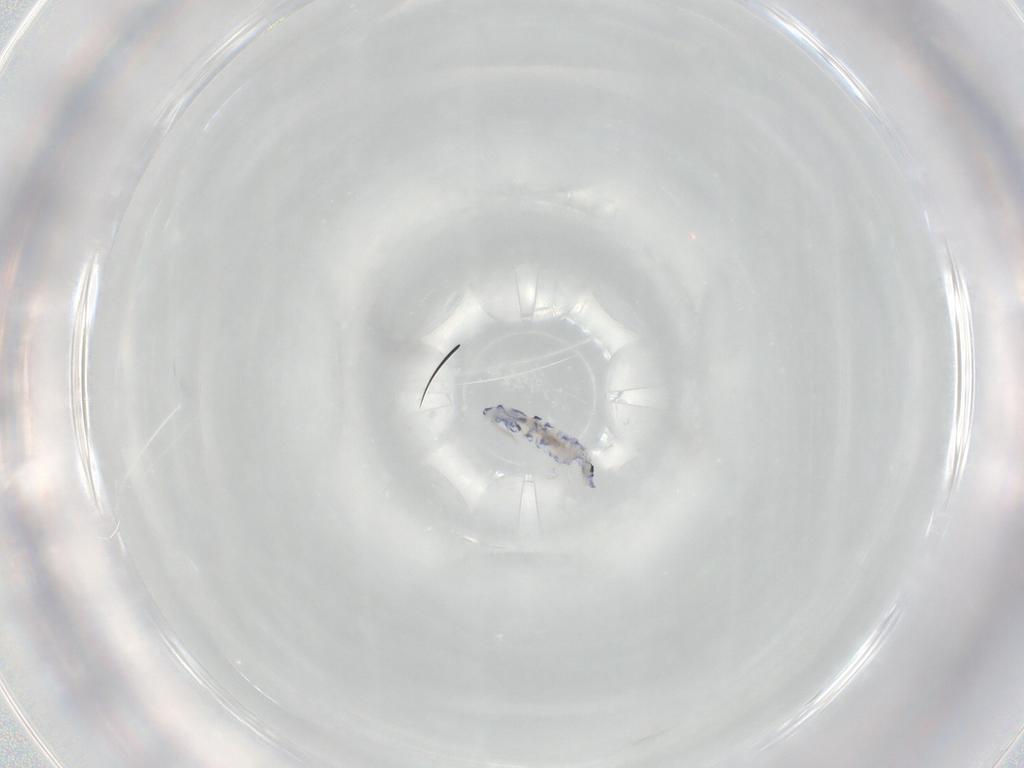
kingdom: Animalia
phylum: Arthropoda
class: Collembola
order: Entomobryomorpha
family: Entomobryidae
